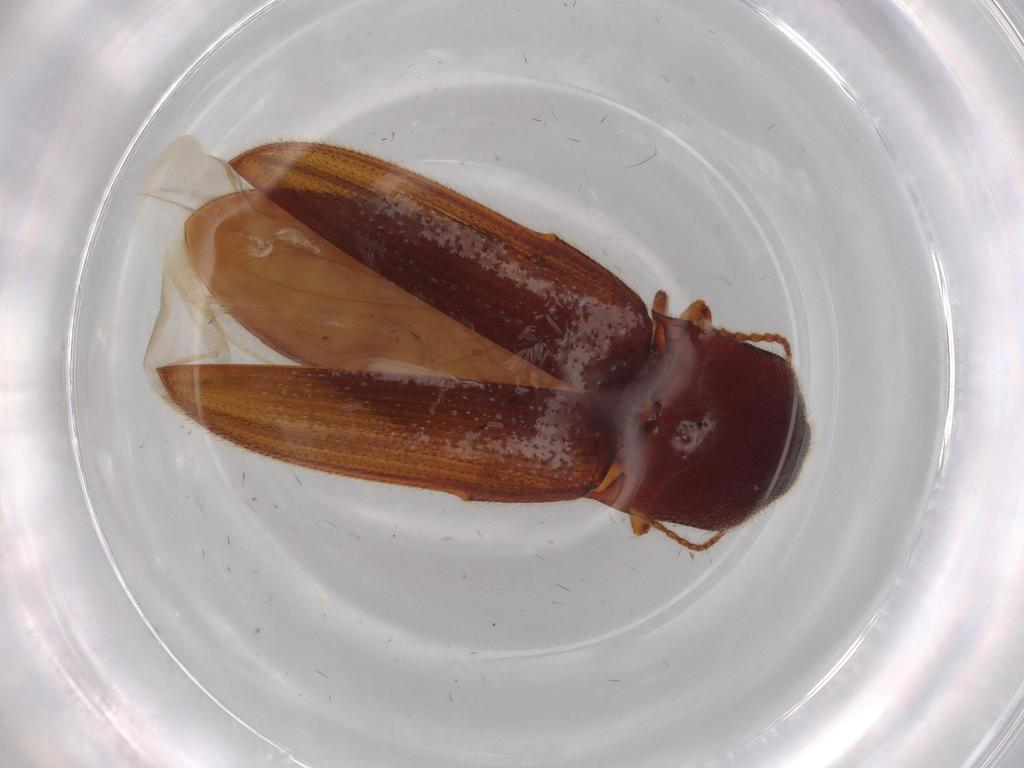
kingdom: Animalia
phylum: Arthropoda
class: Insecta
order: Coleoptera
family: Elateridae
